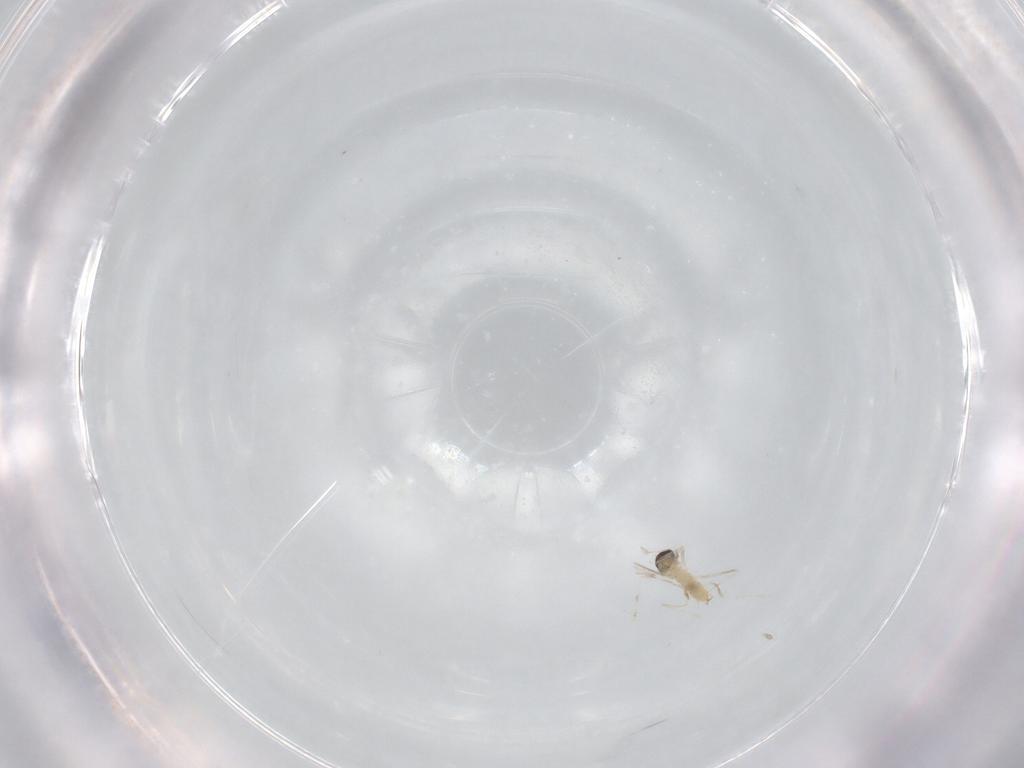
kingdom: Animalia
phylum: Arthropoda
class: Insecta
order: Diptera
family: Cecidomyiidae
